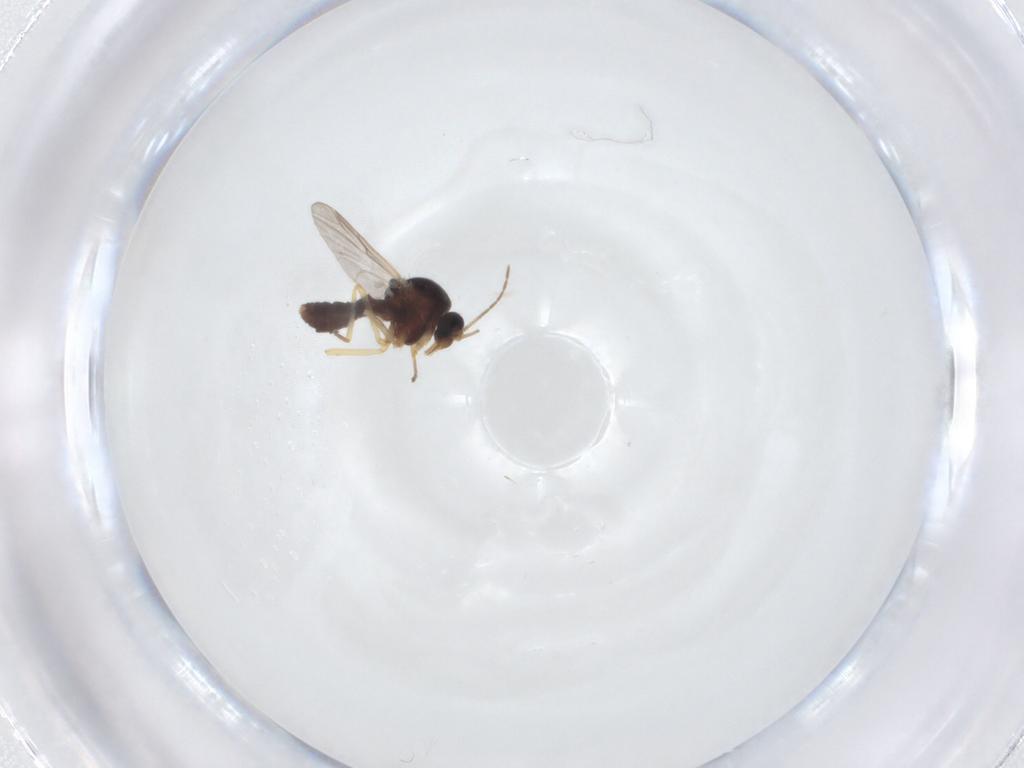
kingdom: Animalia
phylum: Arthropoda
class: Insecta
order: Diptera
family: Ceratopogonidae
